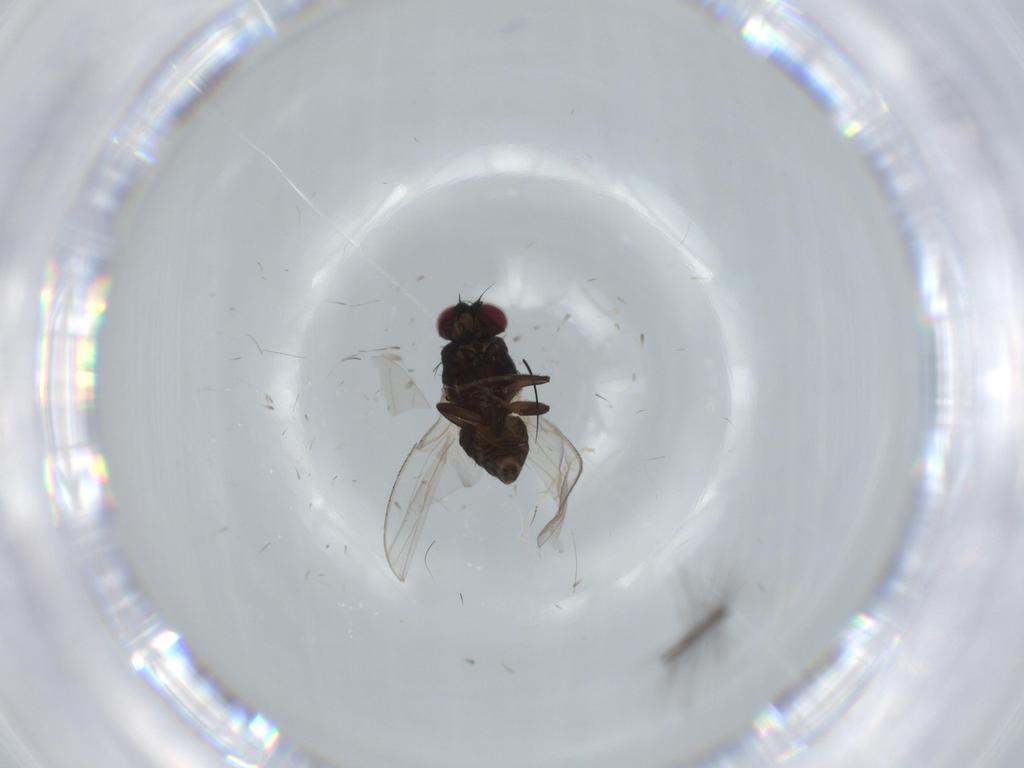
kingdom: Animalia
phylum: Arthropoda
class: Insecta
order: Diptera
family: Carnidae
